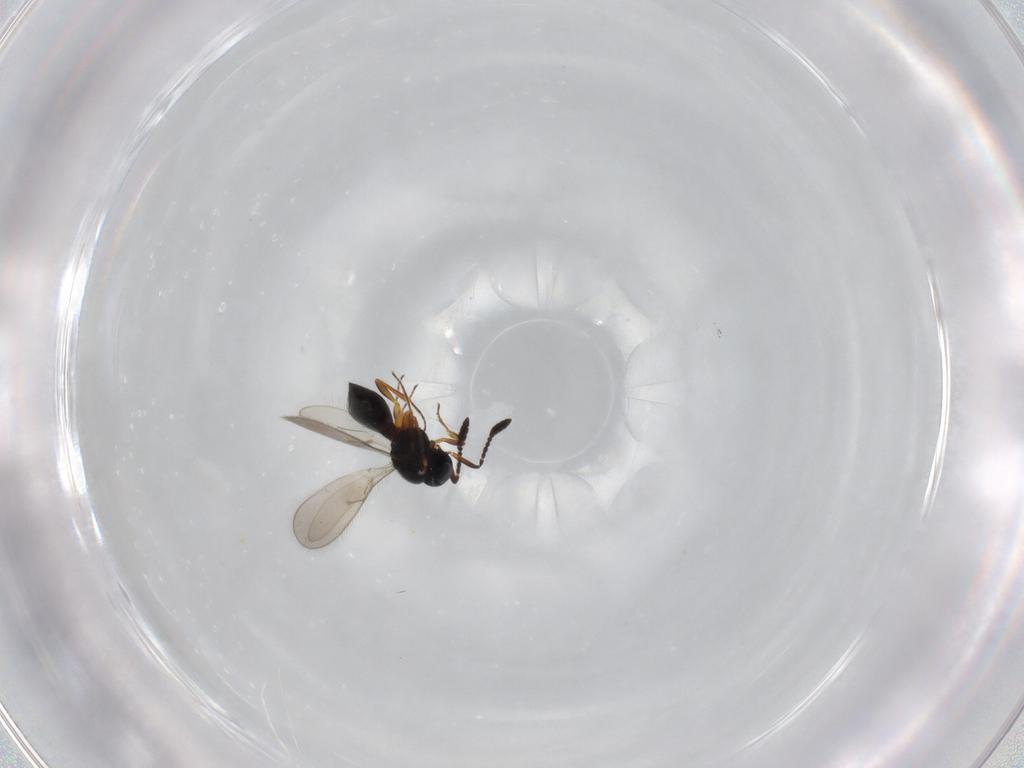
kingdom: Animalia
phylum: Arthropoda
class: Insecta
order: Hymenoptera
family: Scelionidae
